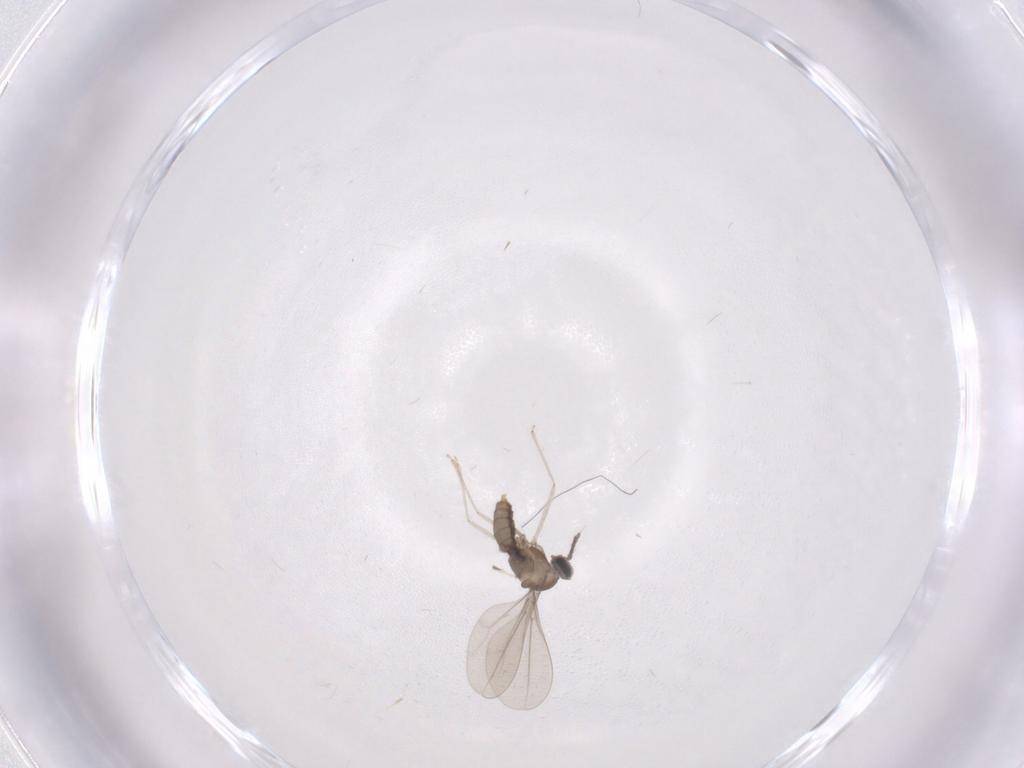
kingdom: Animalia
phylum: Arthropoda
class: Insecta
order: Diptera
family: Cecidomyiidae
